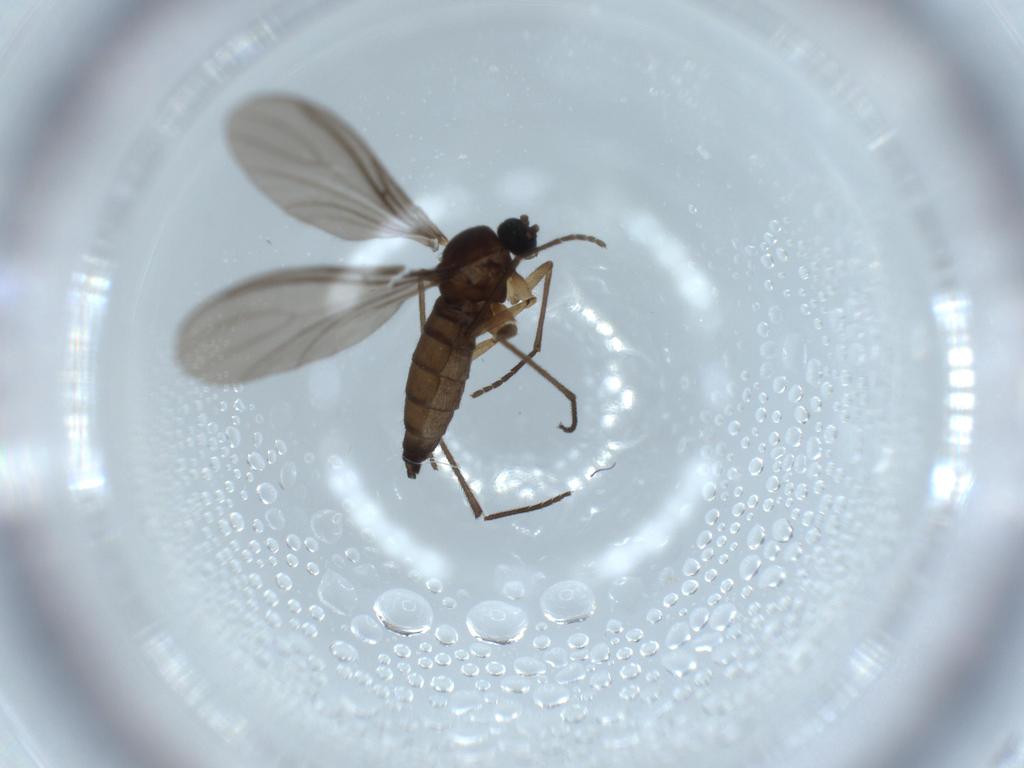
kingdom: Animalia
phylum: Arthropoda
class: Insecta
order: Diptera
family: Sciaridae
